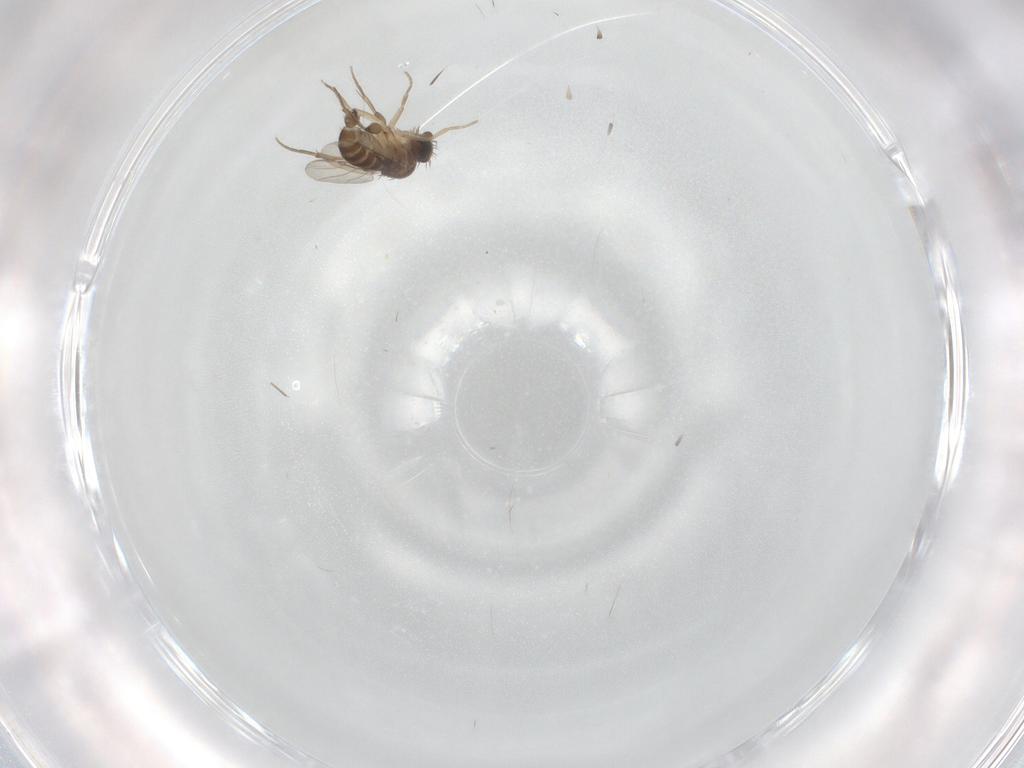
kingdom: Animalia
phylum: Arthropoda
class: Insecta
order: Diptera
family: Phoridae
